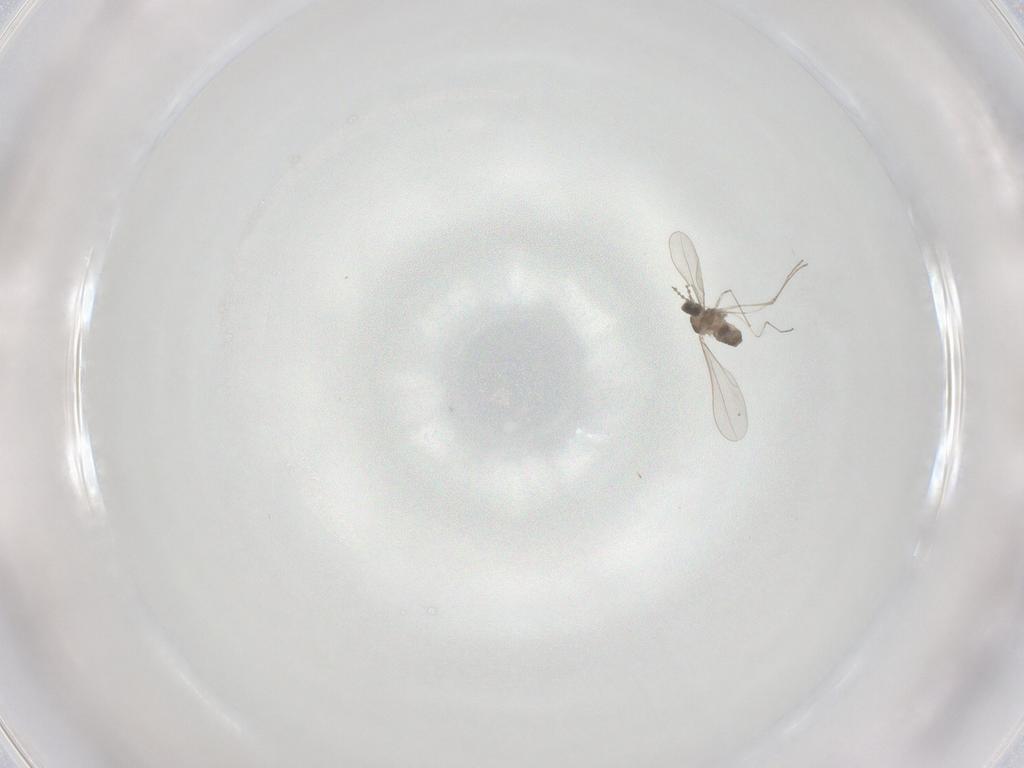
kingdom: Animalia
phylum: Arthropoda
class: Insecta
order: Diptera
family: Cecidomyiidae
